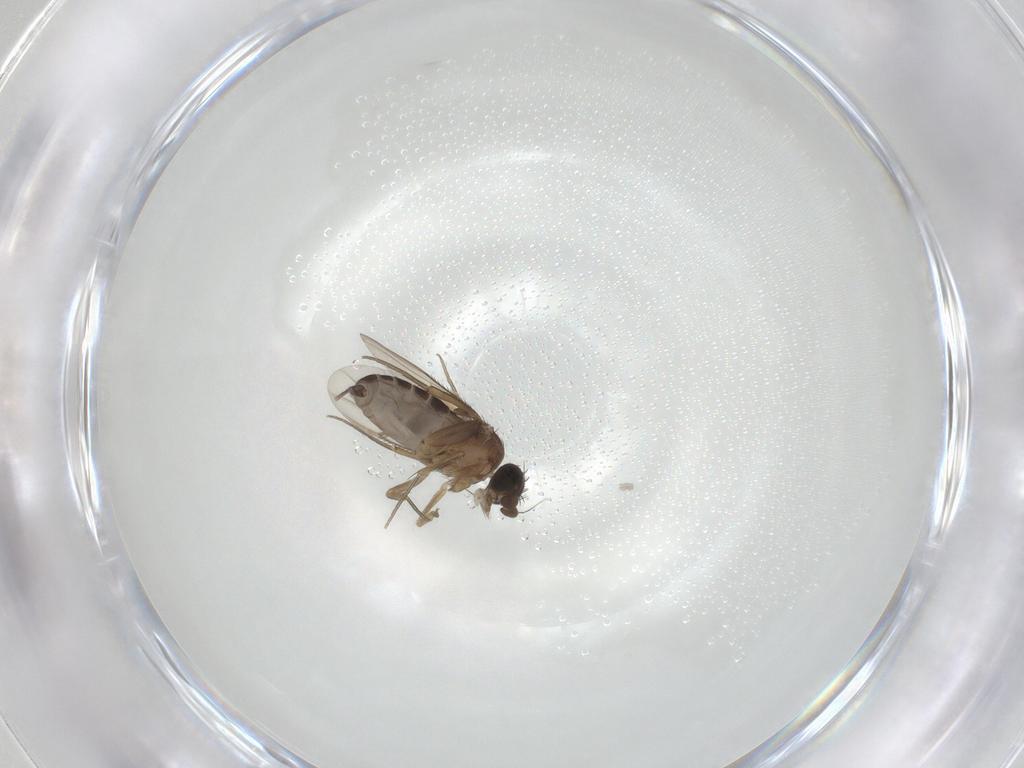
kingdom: Animalia
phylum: Arthropoda
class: Insecta
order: Diptera
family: Phoridae
